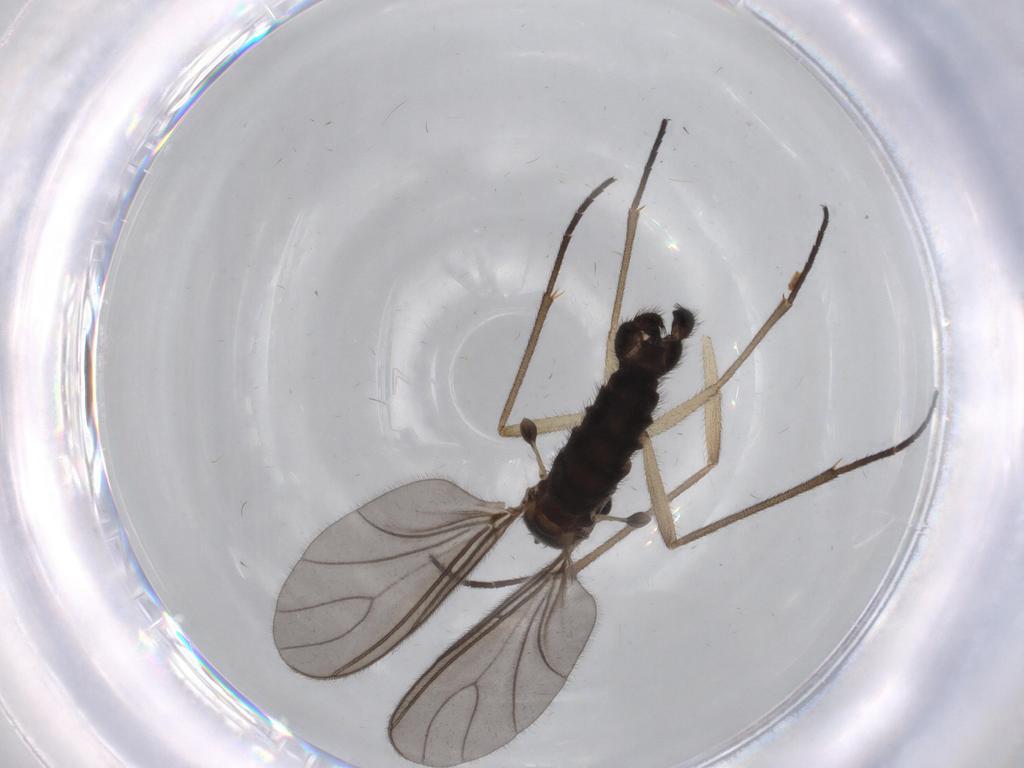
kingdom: Animalia
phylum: Arthropoda
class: Insecta
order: Diptera
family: Sciaridae
